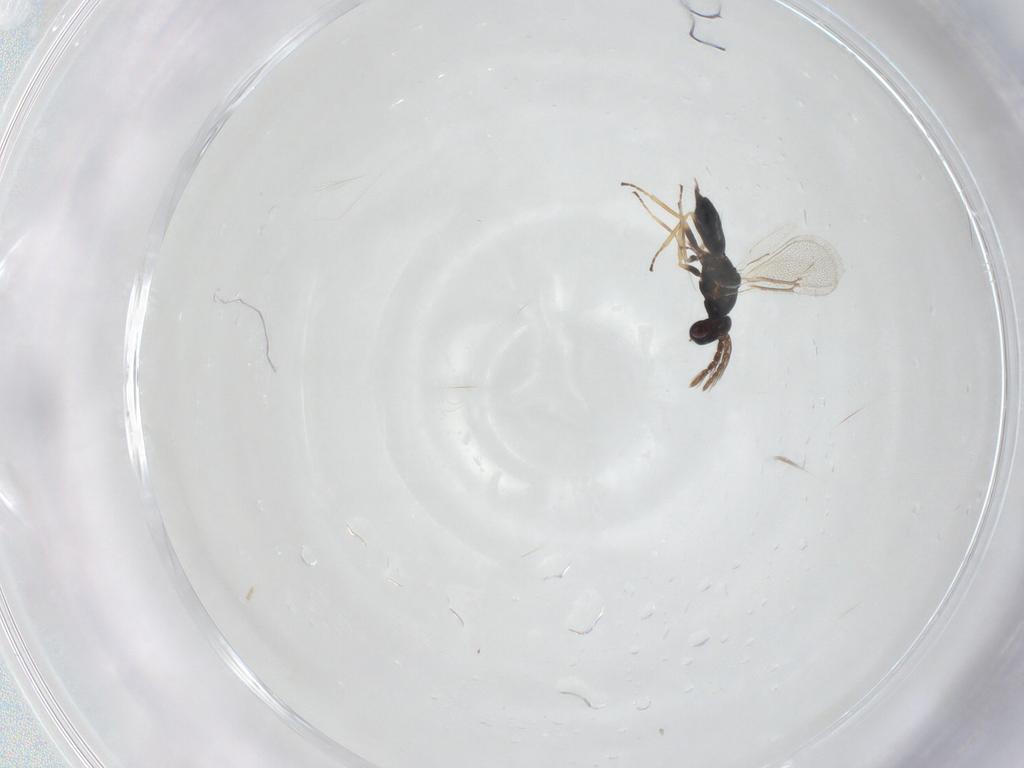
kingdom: Animalia
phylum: Arthropoda
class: Insecta
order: Hymenoptera
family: Eulophidae
